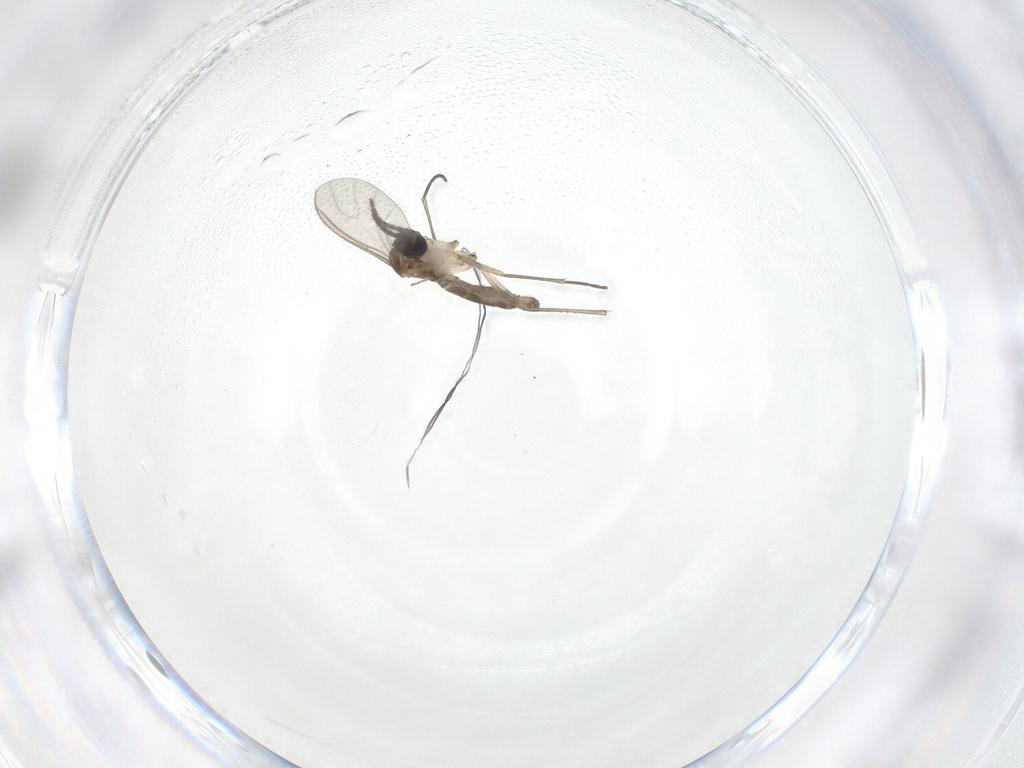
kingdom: Animalia
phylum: Arthropoda
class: Insecta
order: Diptera
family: Sciaridae
